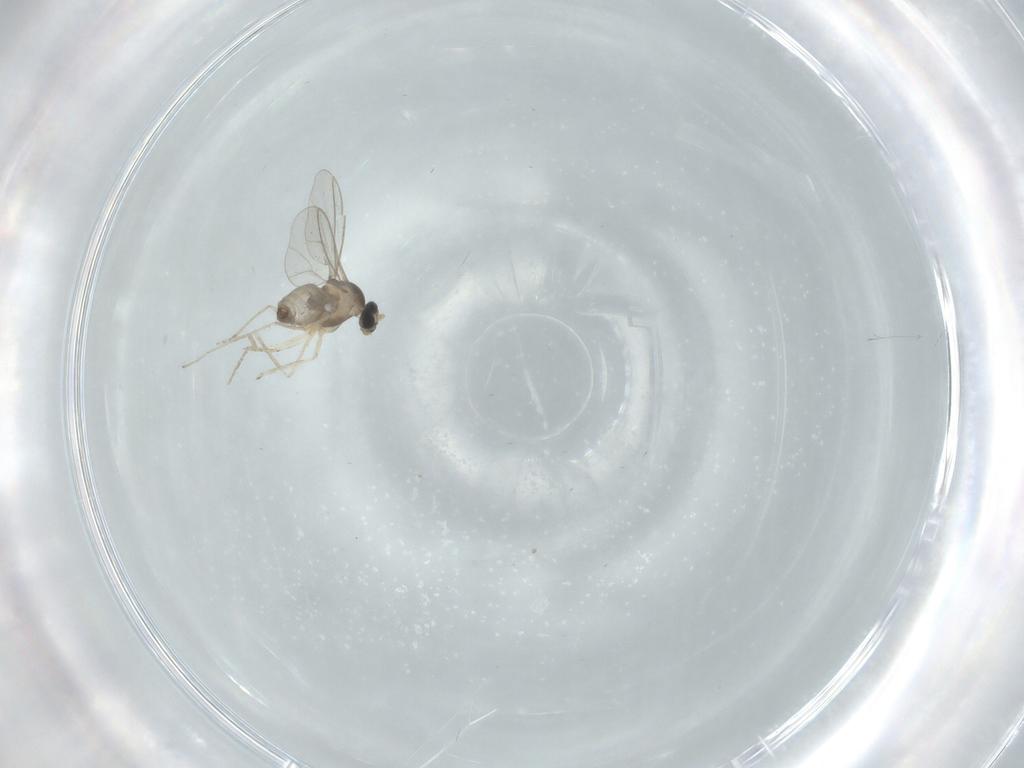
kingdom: Animalia
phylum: Arthropoda
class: Insecta
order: Diptera
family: Cecidomyiidae
